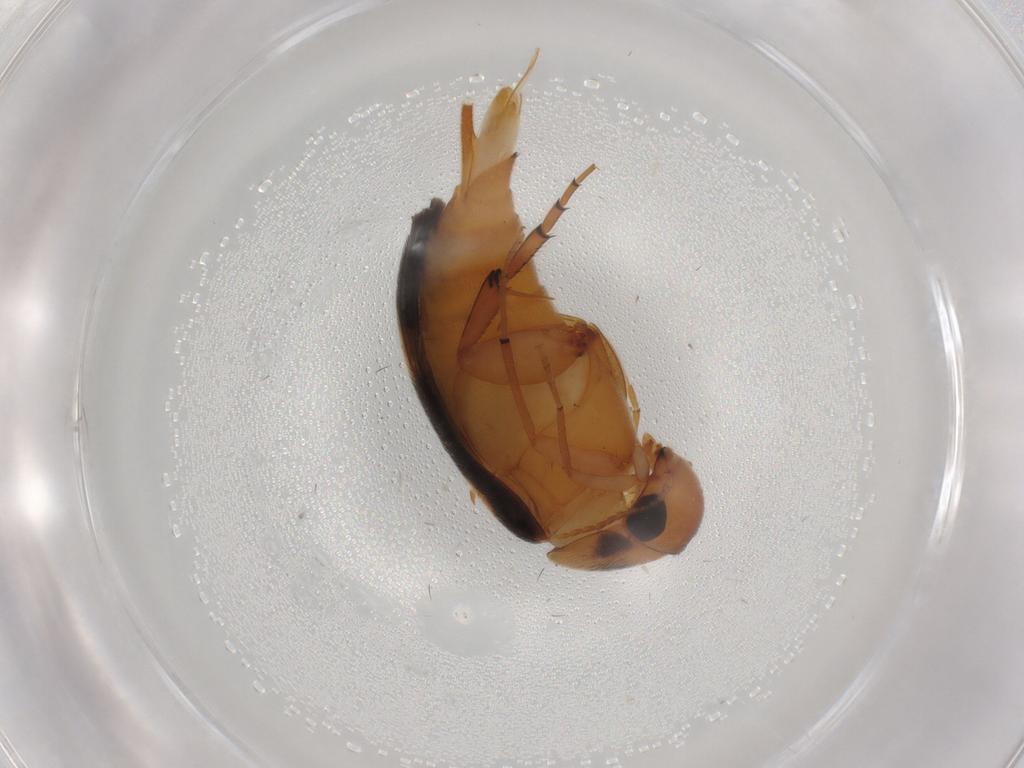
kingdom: Animalia
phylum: Arthropoda
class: Insecta
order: Coleoptera
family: Mordellidae
